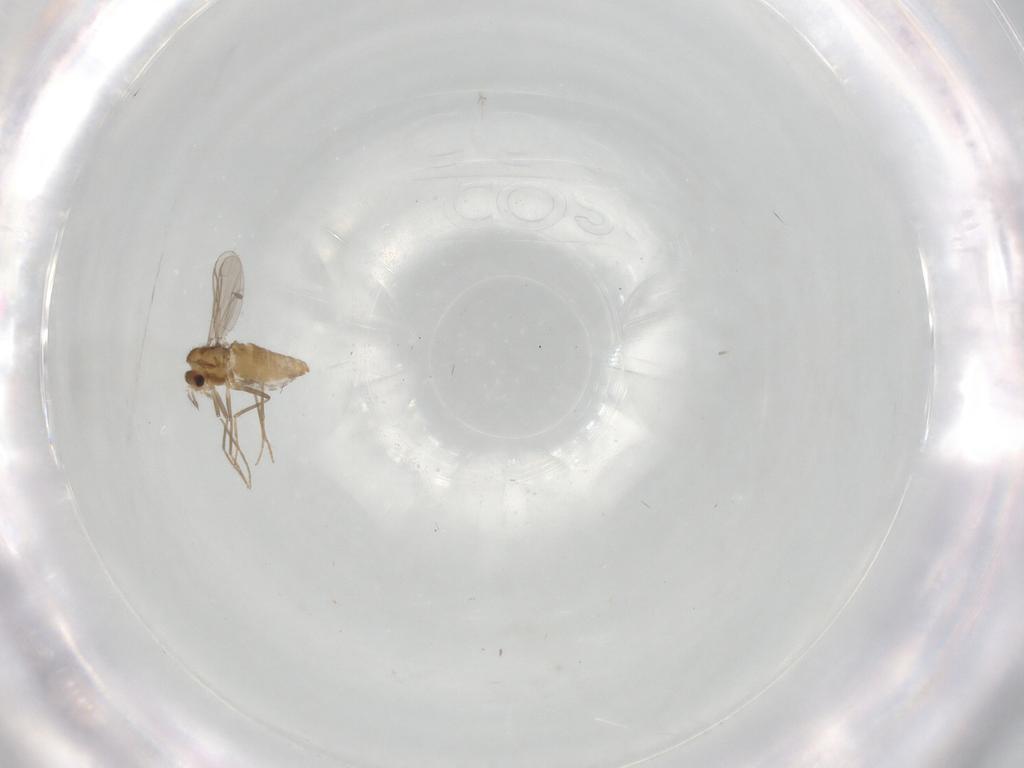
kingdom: Animalia
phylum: Arthropoda
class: Insecta
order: Diptera
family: Chironomidae
